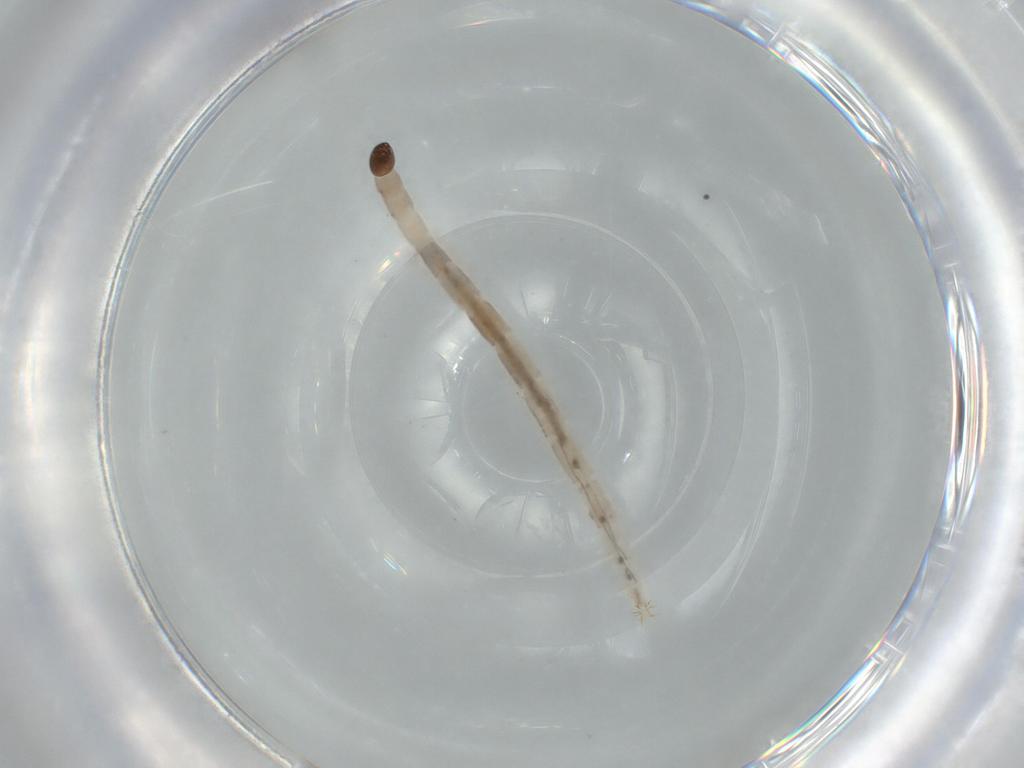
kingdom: Animalia
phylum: Arthropoda
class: Insecta
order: Diptera
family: Ceratopogonidae
